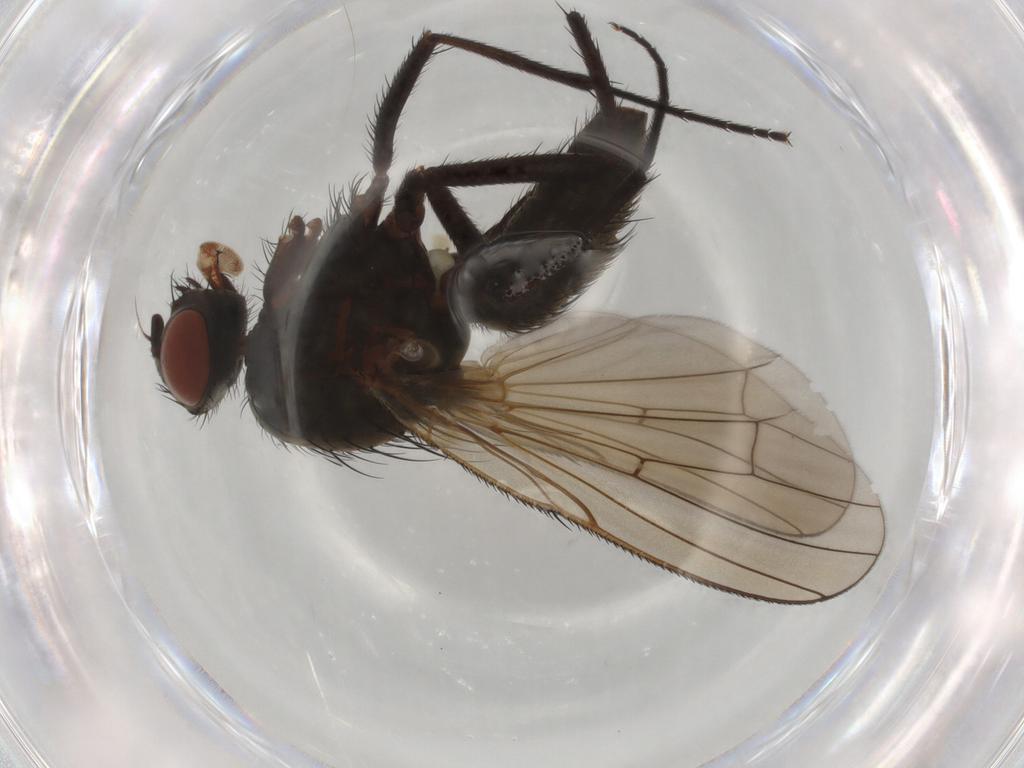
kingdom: Animalia
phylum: Arthropoda
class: Insecta
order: Diptera
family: Anthomyiidae
